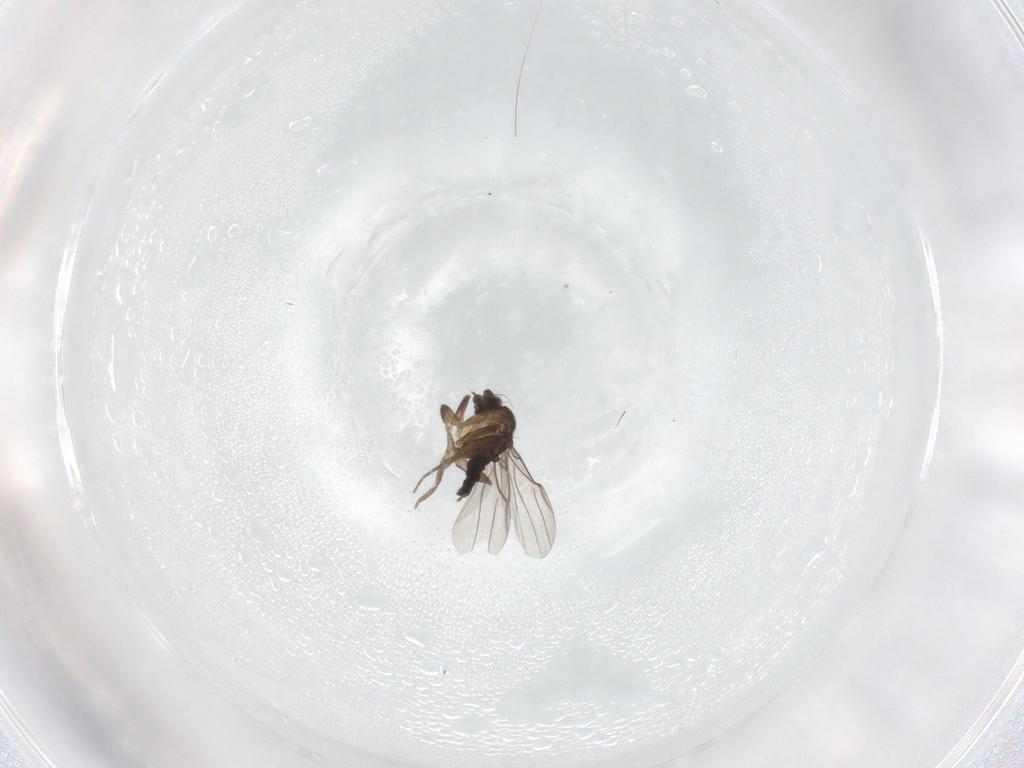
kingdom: Animalia
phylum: Arthropoda
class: Insecta
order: Diptera
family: Phoridae
